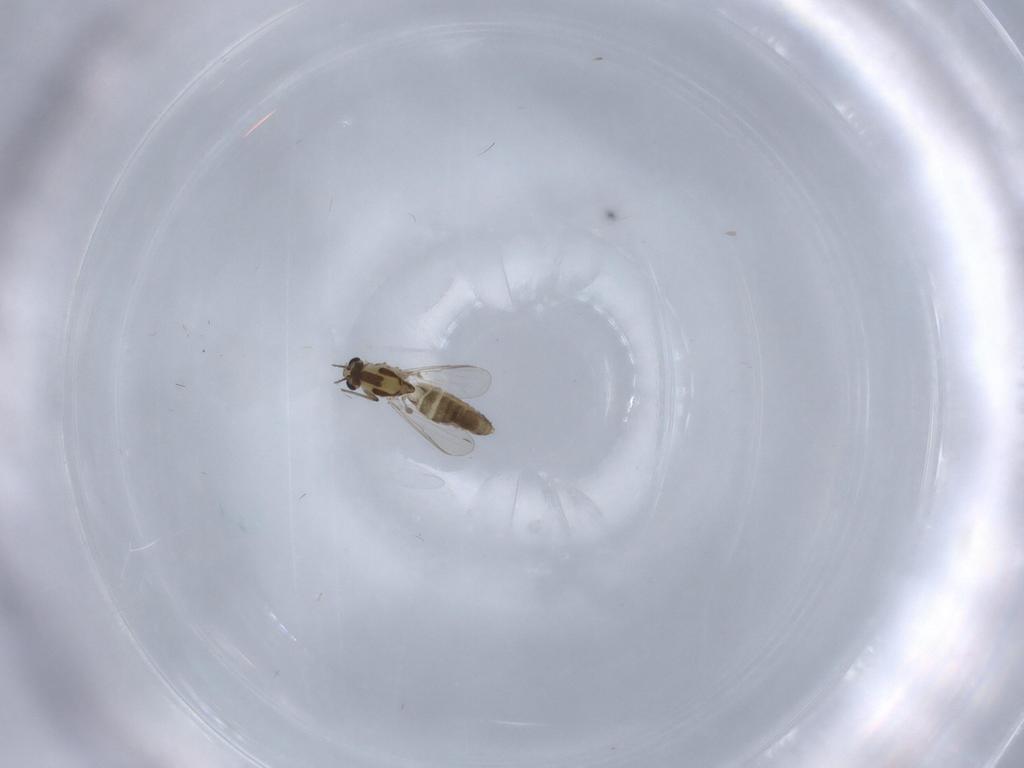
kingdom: Animalia
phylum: Arthropoda
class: Insecta
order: Diptera
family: Chironomidae
